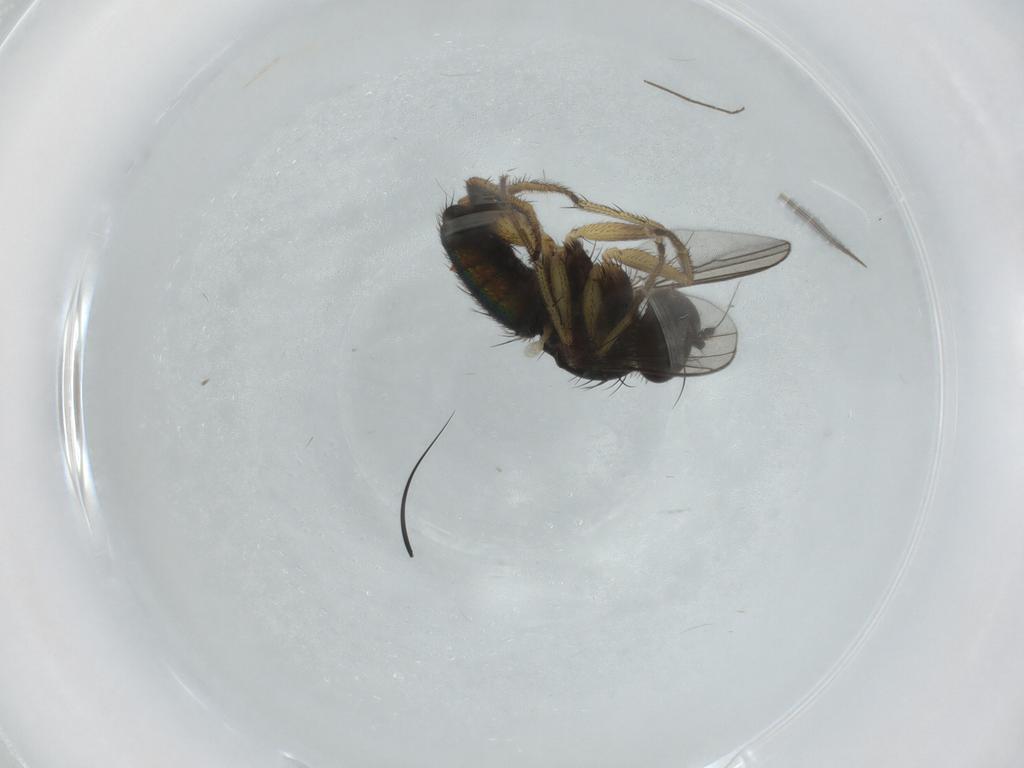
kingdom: Animalia
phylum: Arthropoda
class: Insecta
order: Diptera
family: Dolichopodidae
